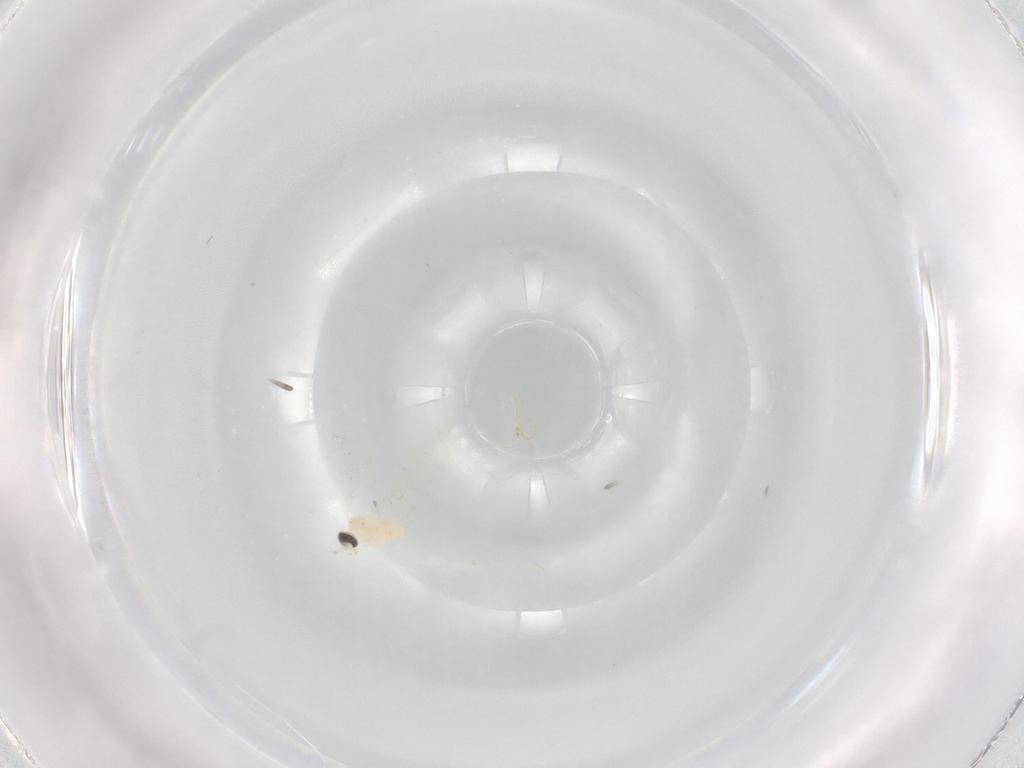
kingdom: Animalia
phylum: Arthropoda
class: Insecta
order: Diptera
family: Cecidomyiidae
